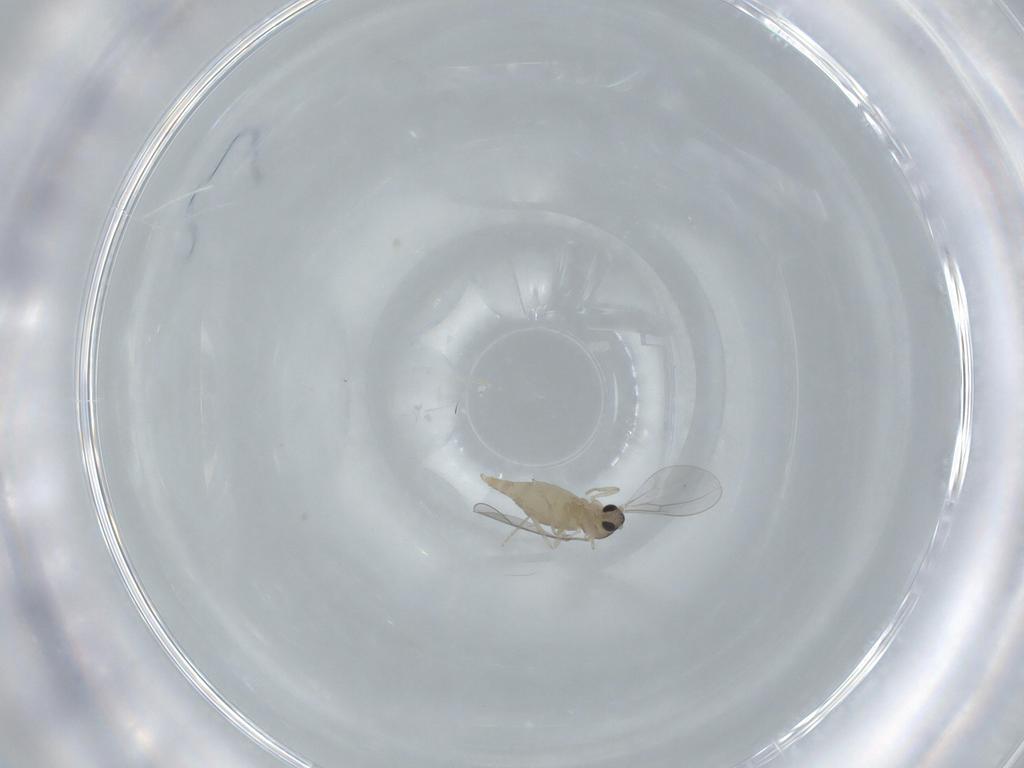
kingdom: Animalia
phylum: Arthropoda
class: Insecta
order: Diptera
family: Cecidomyiidae
